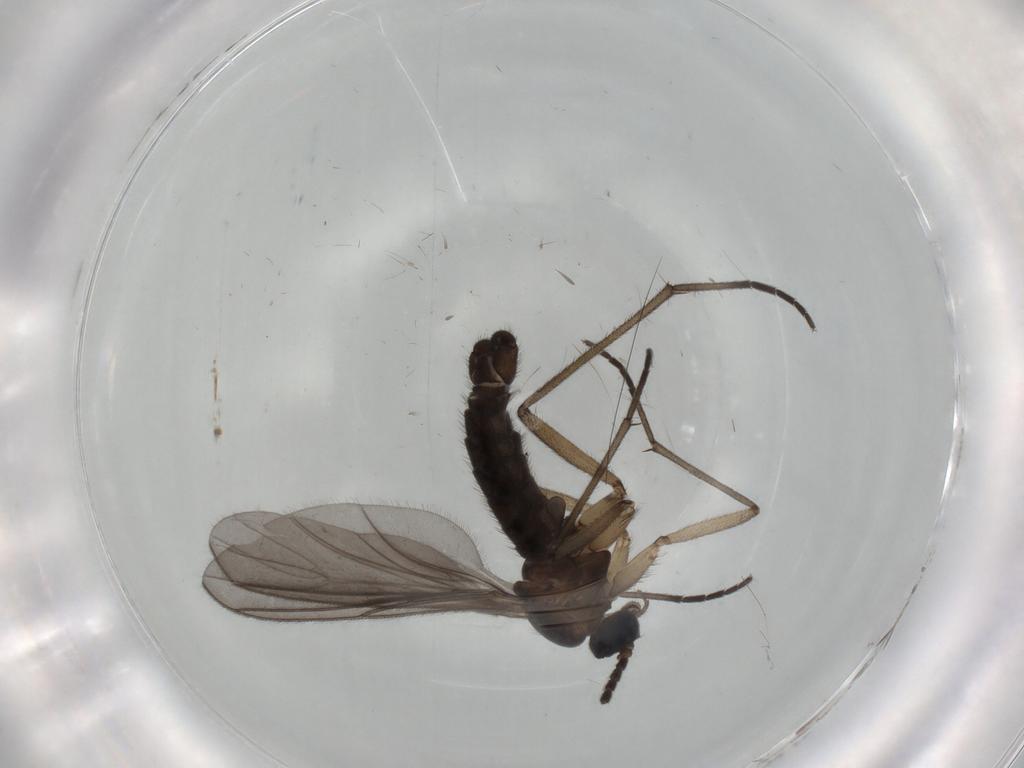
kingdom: Animalia
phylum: Arthropoda
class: Insecta
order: Diptera
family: Sciaridae
